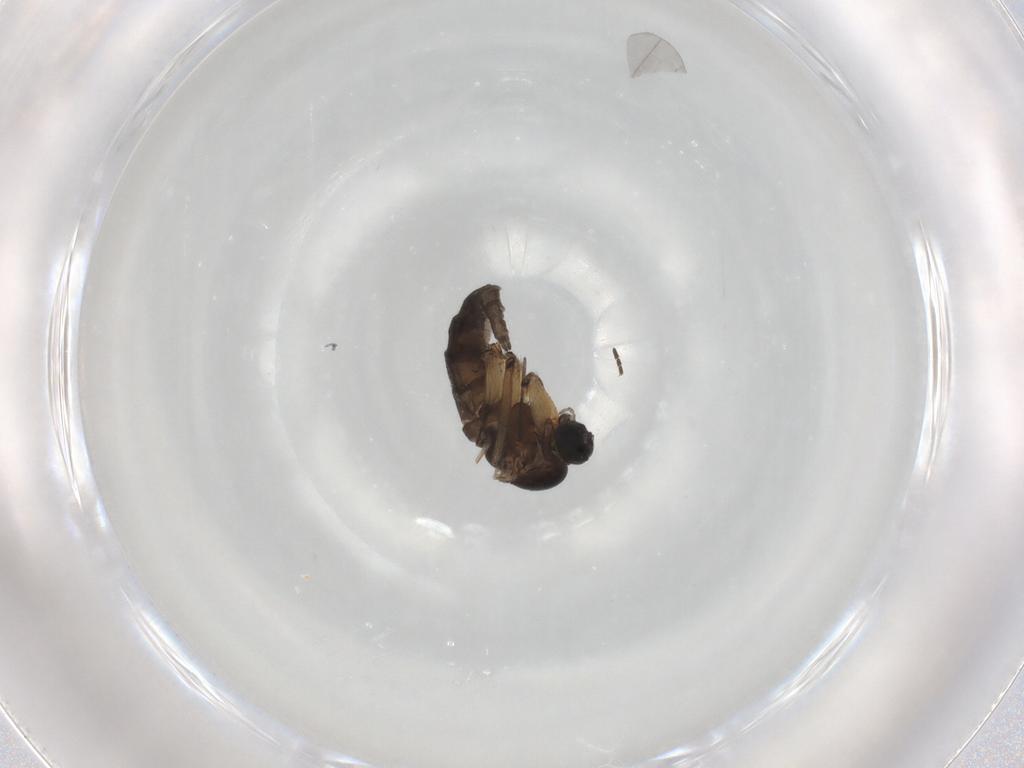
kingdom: Animalia
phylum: Arthropoda
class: Insecta
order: Diptera
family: Sciaridae
